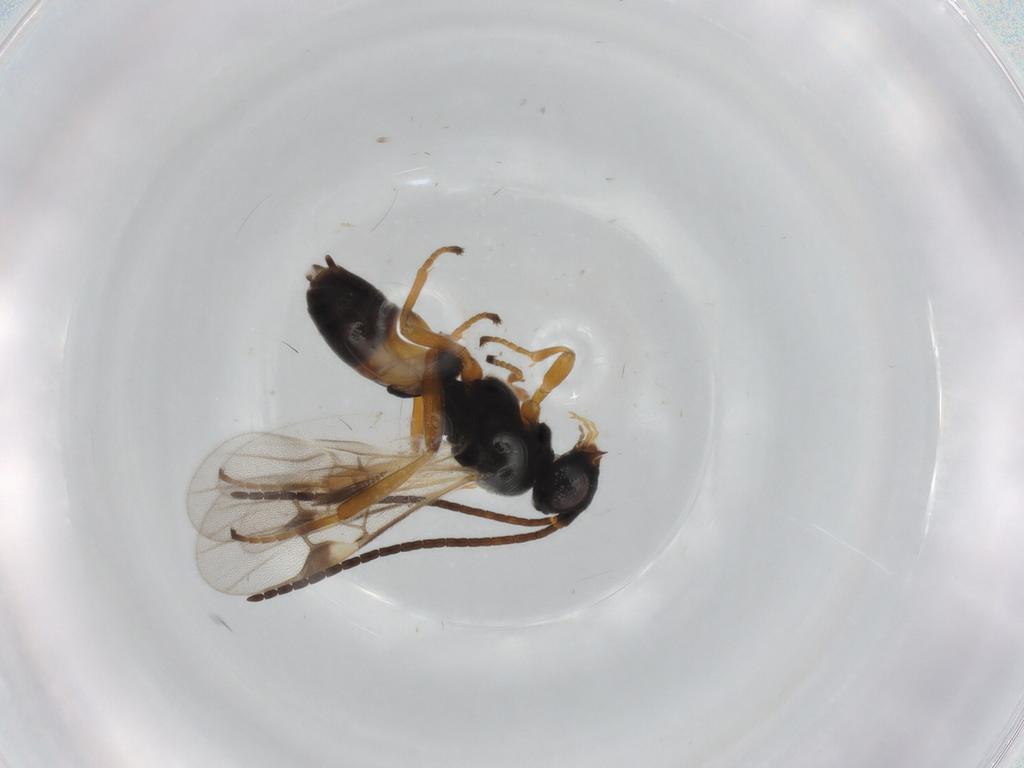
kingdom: Animalia
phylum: Arthropoda
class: Insecta
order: Hymenoptera
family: Braconidae
